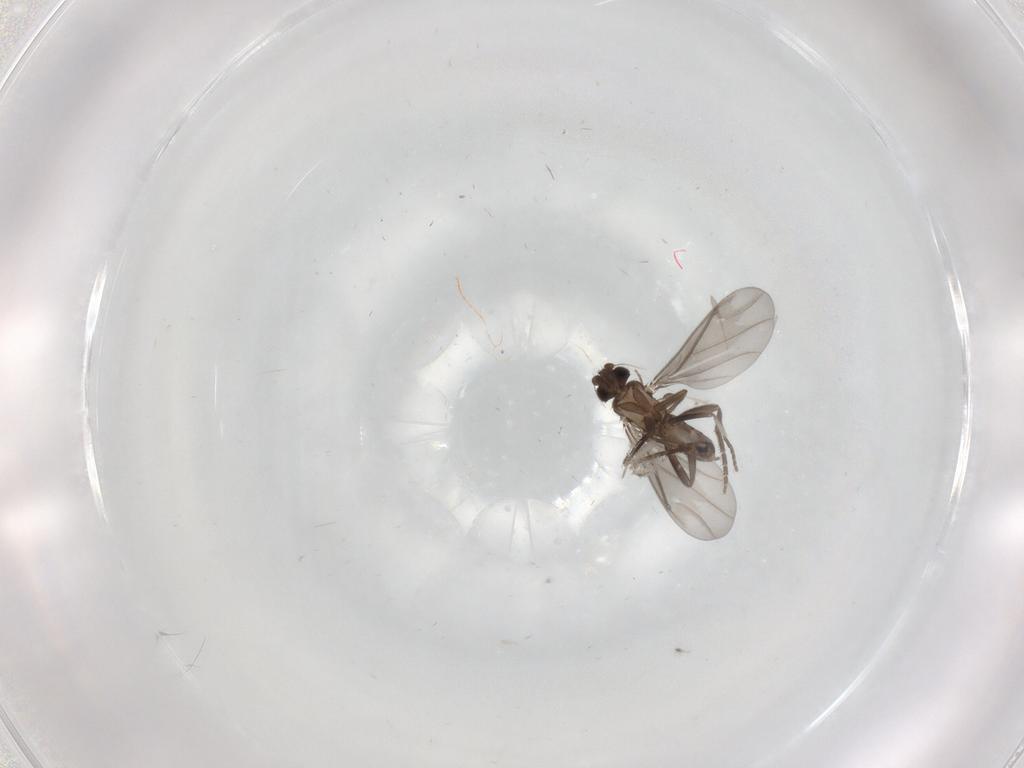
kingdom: Animalia
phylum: Arthropoda
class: Insecta
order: Diptera
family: Phoridae
